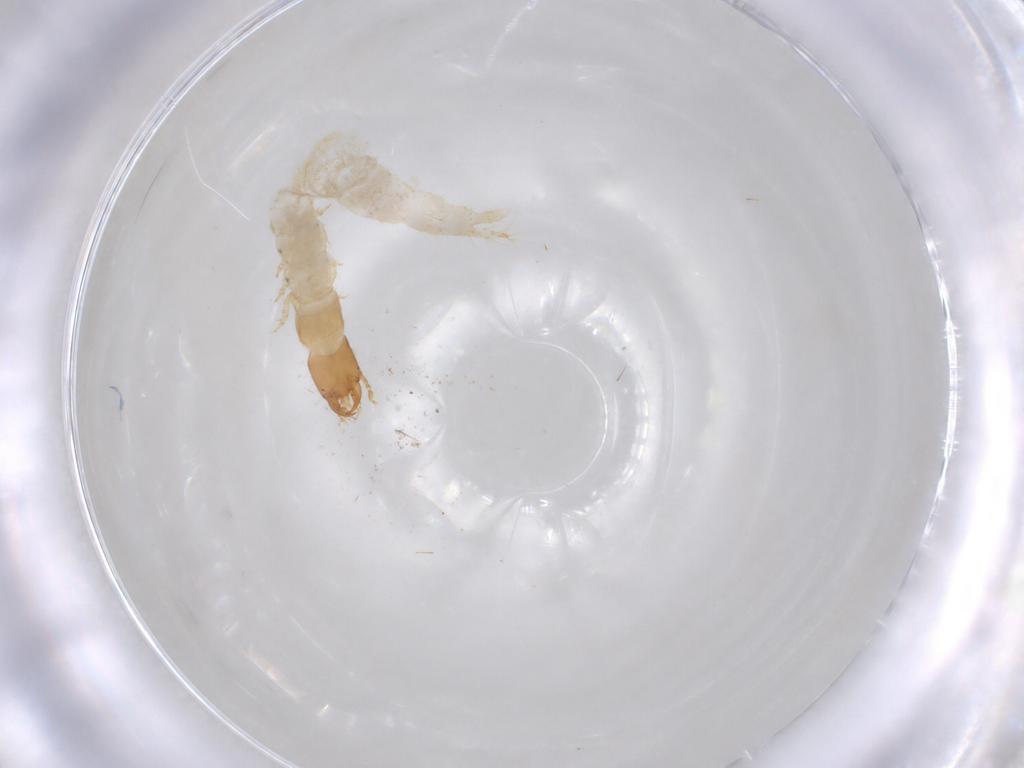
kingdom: Animalia
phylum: Arthropoda
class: Insecta
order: Coleoptera
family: Carabidae
